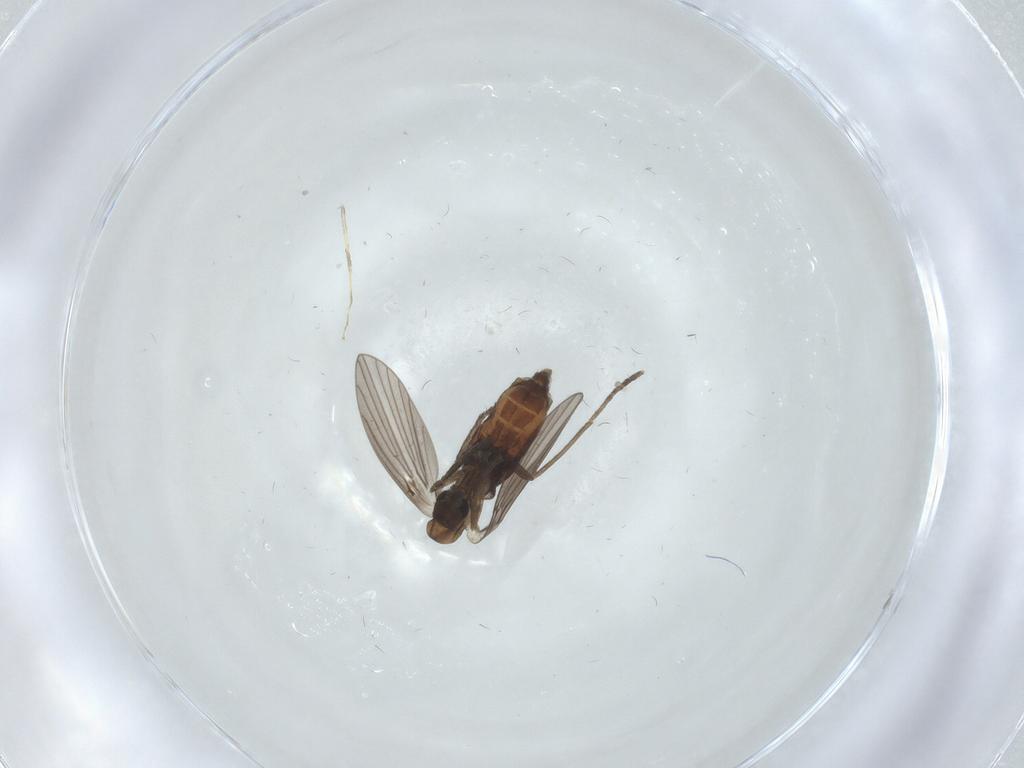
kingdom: Animalia
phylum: Arthropoda
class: Insecta
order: Diptera
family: Psychodidae
